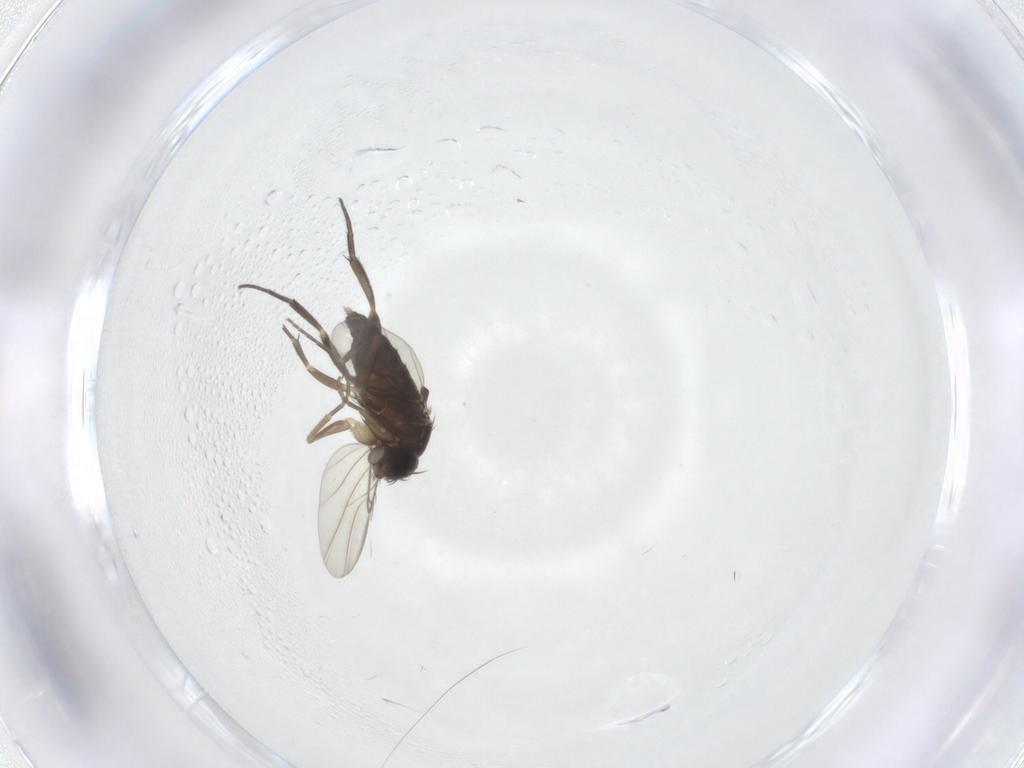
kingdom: Animalia
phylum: Arthropoda
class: Insecta
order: Diptera
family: Phoridae
